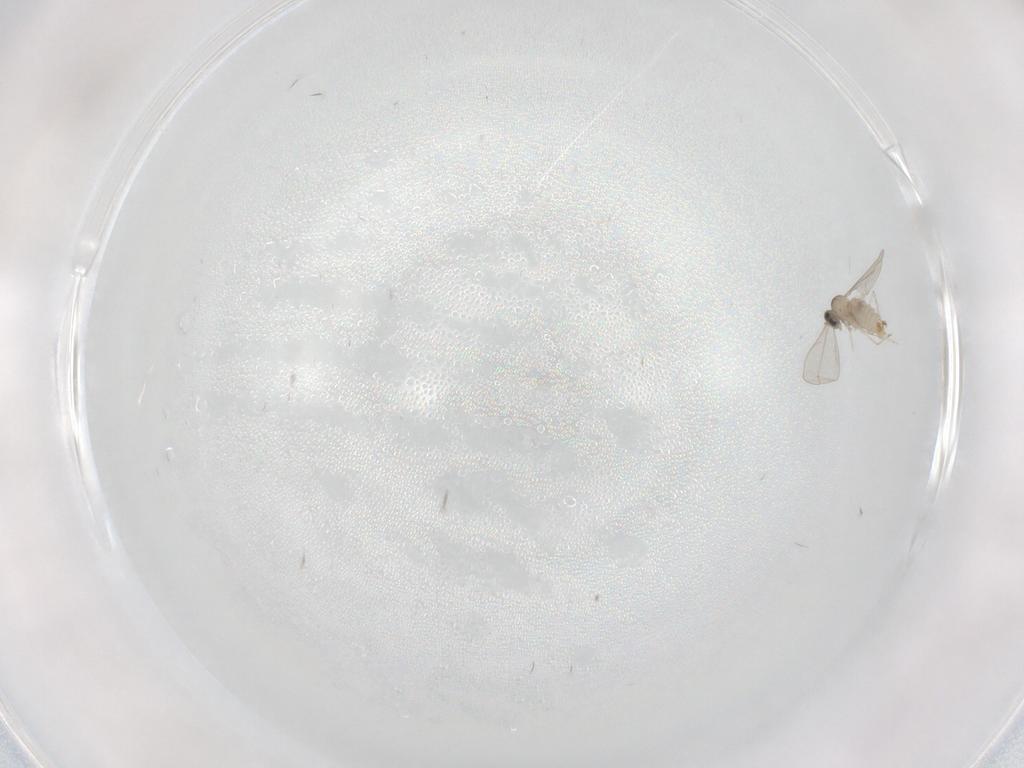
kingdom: Animalia
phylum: Arthropoda
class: Insecta
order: Diptera
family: Cecidomyiidae
